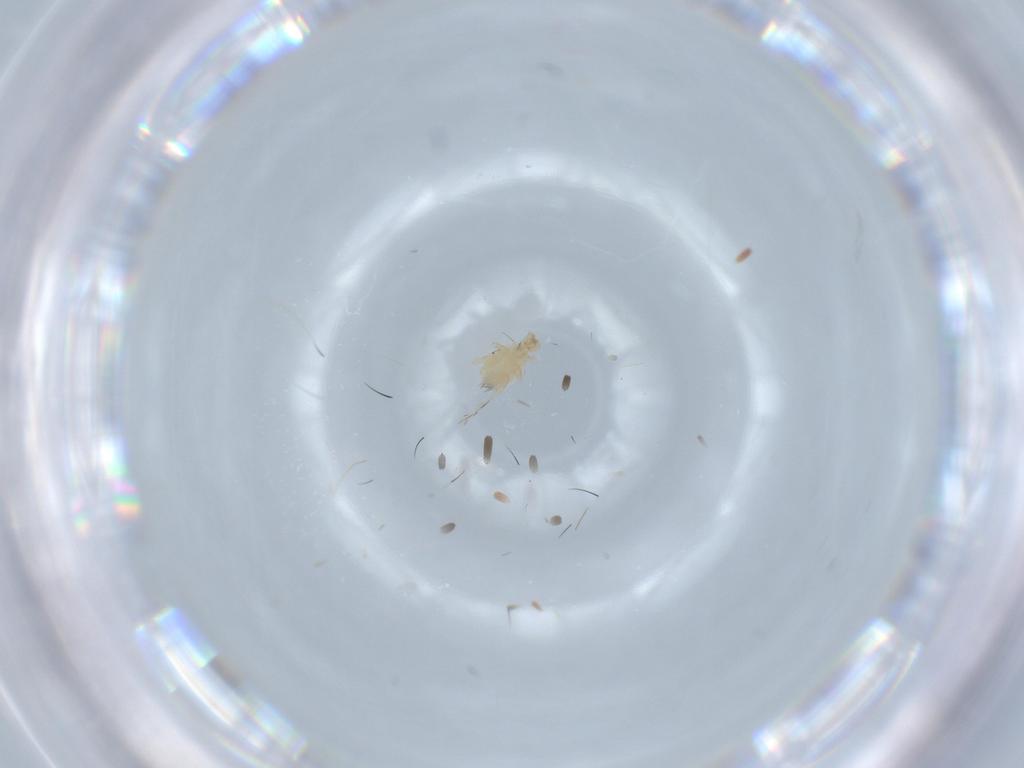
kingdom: Animalia
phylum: Arthropoda
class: Arachnida
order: Trombidiformes
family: Erythraeidae
